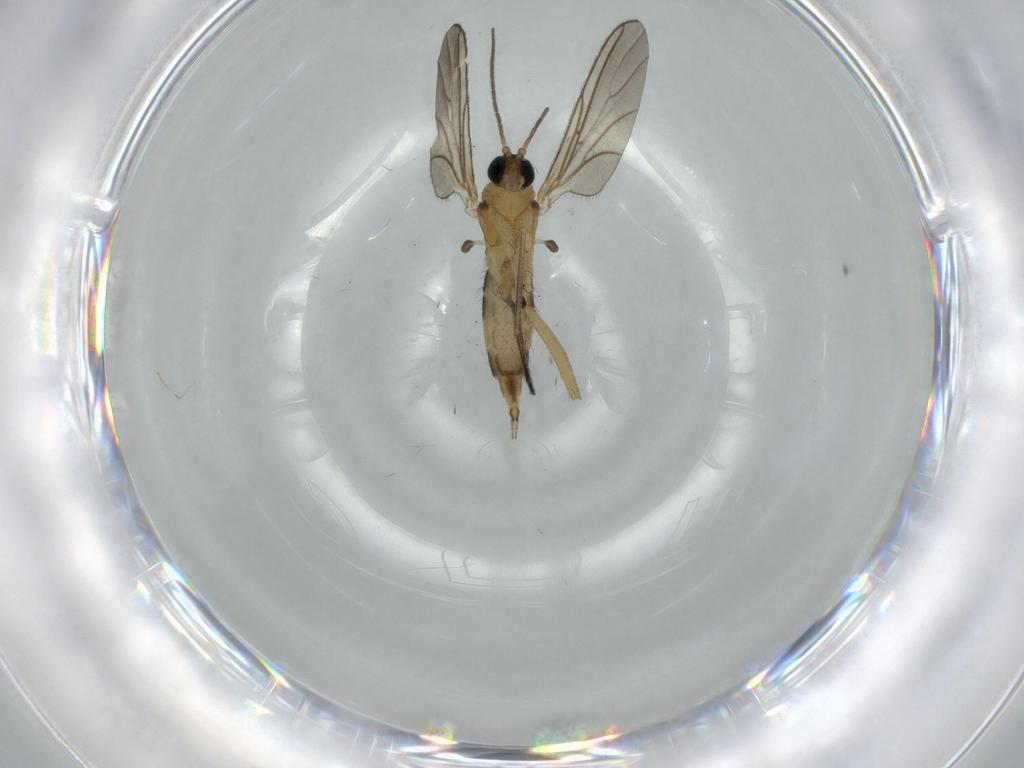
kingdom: Animalia
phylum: Arthropoda
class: Insecta
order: Diptera
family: Sciaridae
